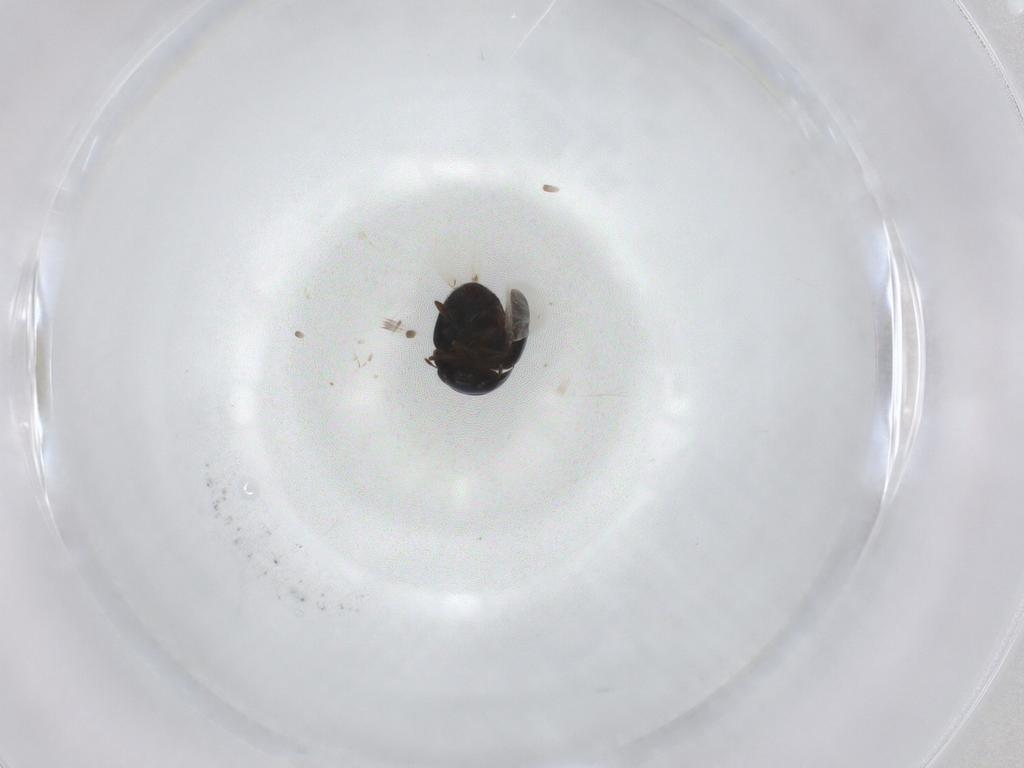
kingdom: Animalia
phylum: Arthropoda
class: Insecta
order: Coleoptera
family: Cybocephalidae
